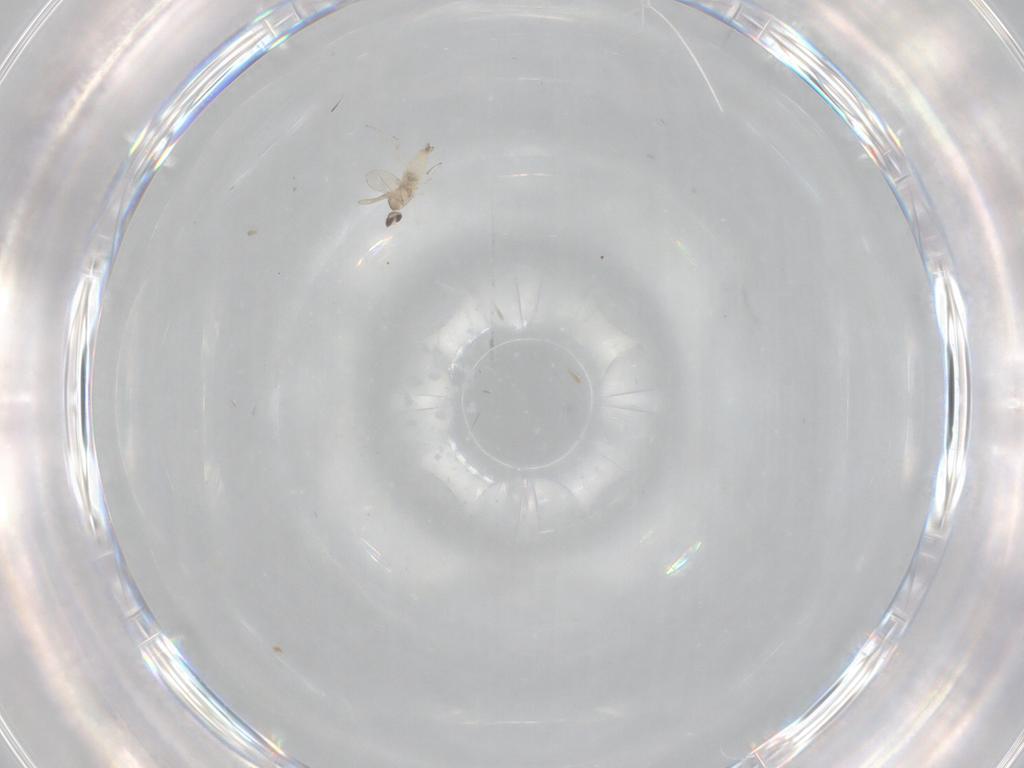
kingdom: Animalia
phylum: Arthropoda
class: Insecta
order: Diptera
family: Cecidomyiidae
